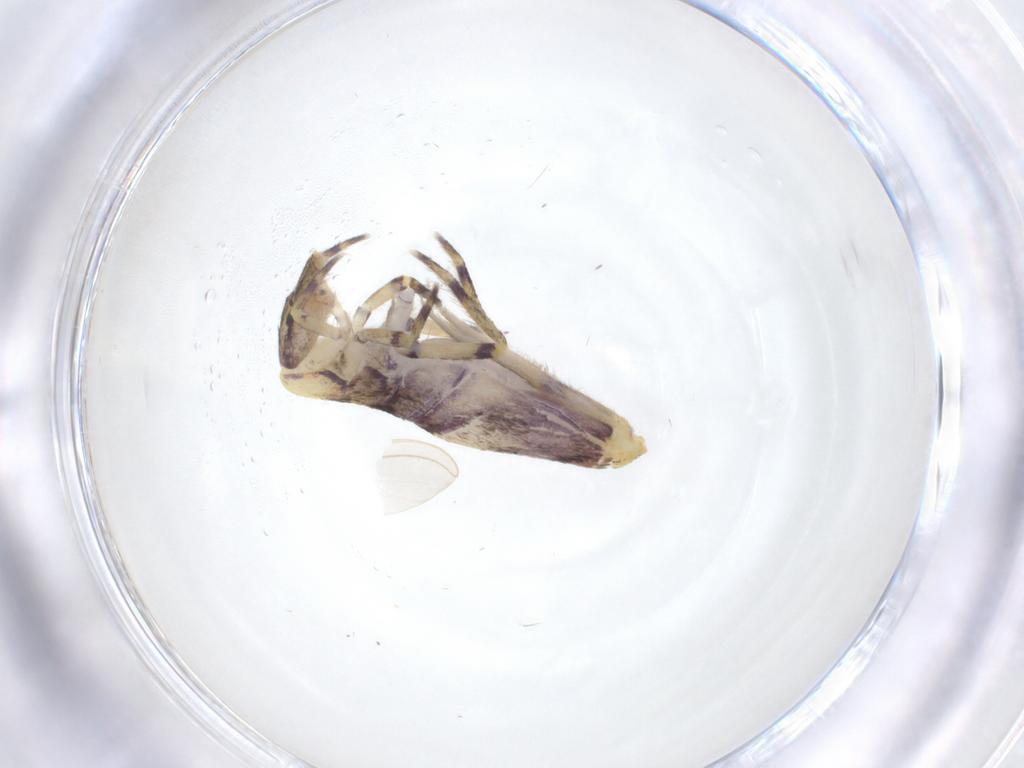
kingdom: Animalia
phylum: Arthropoda
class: Collembola
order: Entomobryomorpha
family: Entomobryidae
